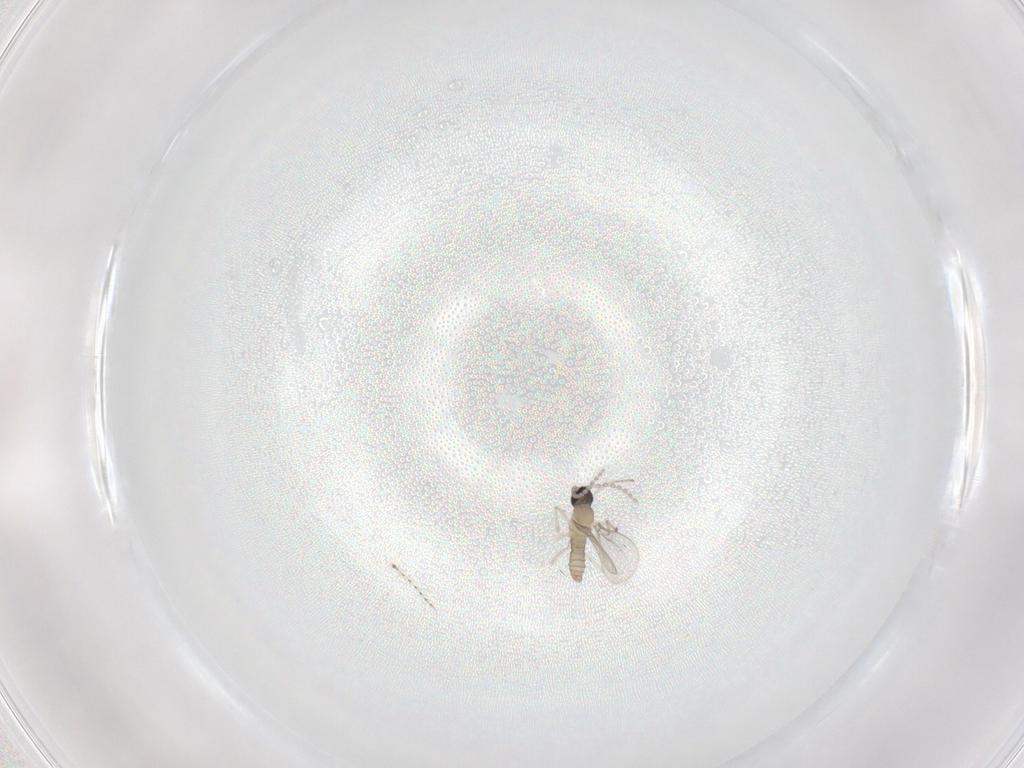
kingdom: Animalia
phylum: Arthropoda
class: Insecta
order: Diptera
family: Cecidomyiidae
